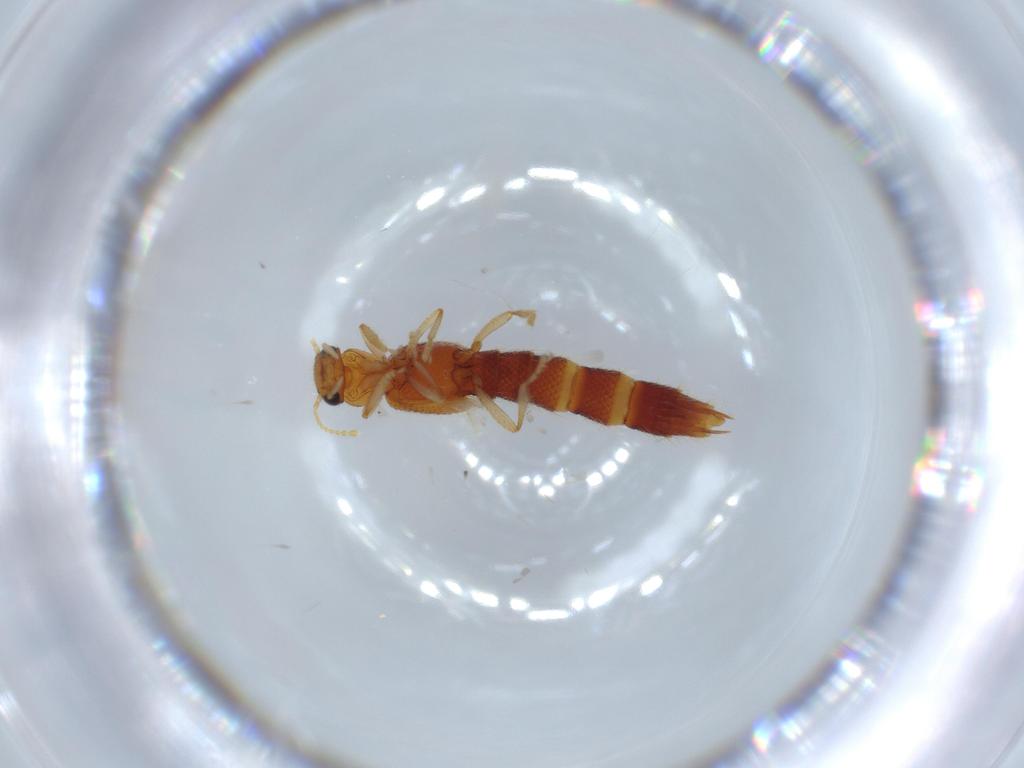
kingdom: Animalia
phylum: Arthropoda
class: Insecta
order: Coleoptera
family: Staphylinidae
